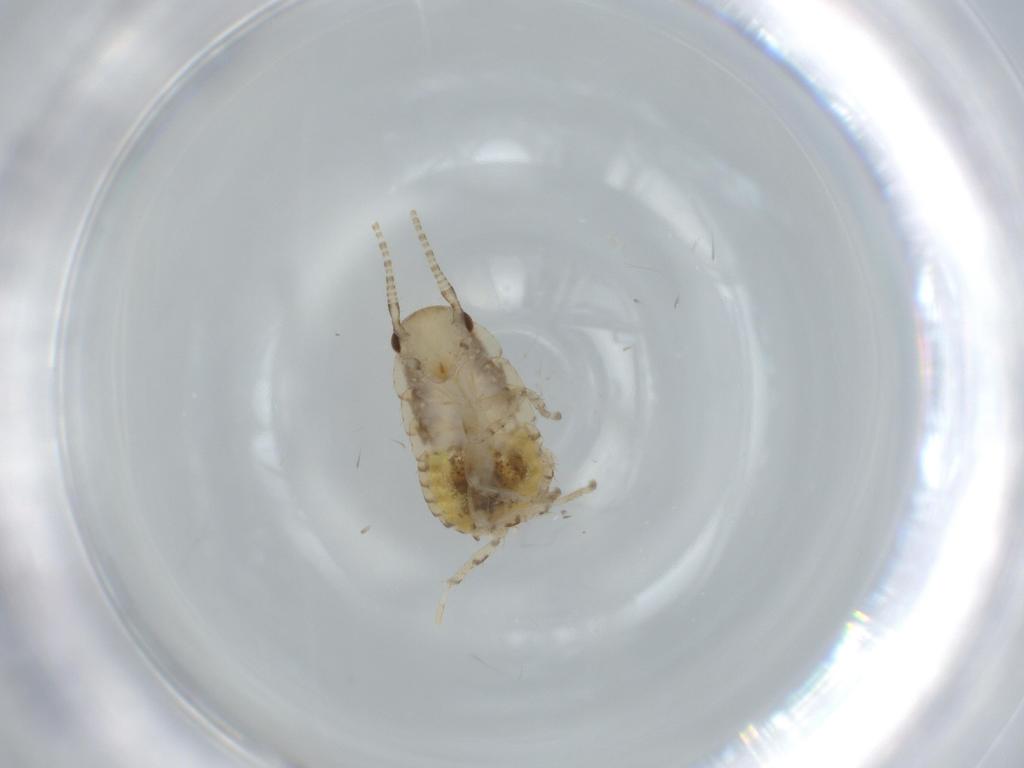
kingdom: Animalia
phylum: Arthropoda
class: Insecta
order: Blattodea
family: Ectobiidae
